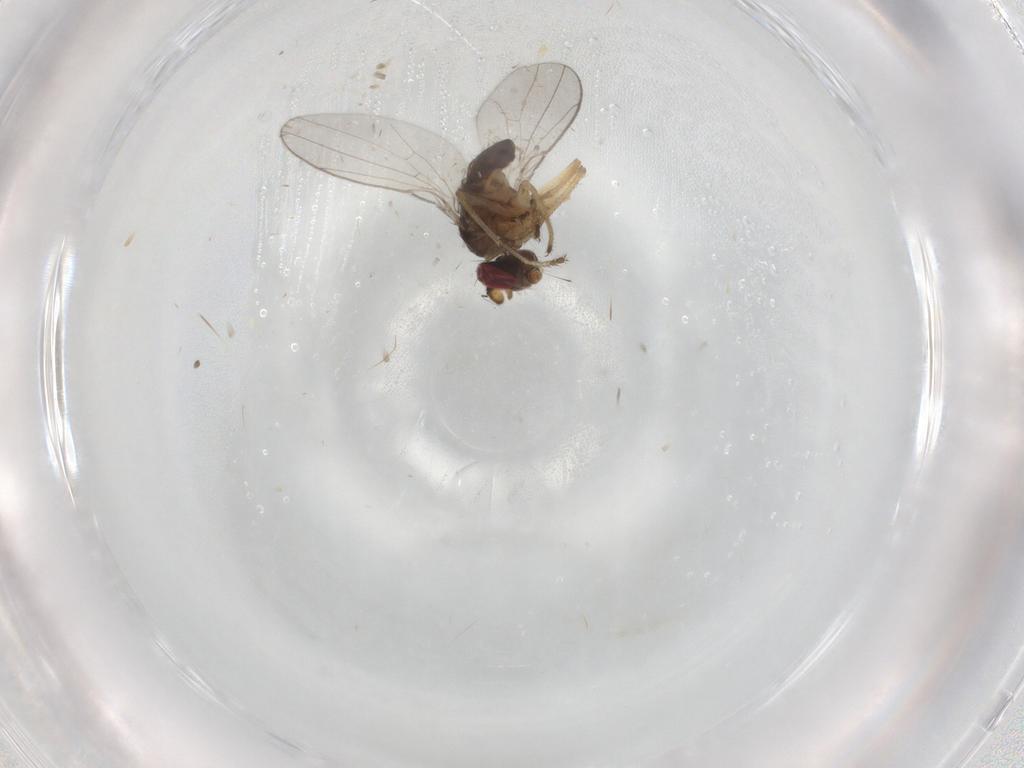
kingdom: Animalia
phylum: Arthropoda
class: Insecta
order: Diptera
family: Ephydridae
